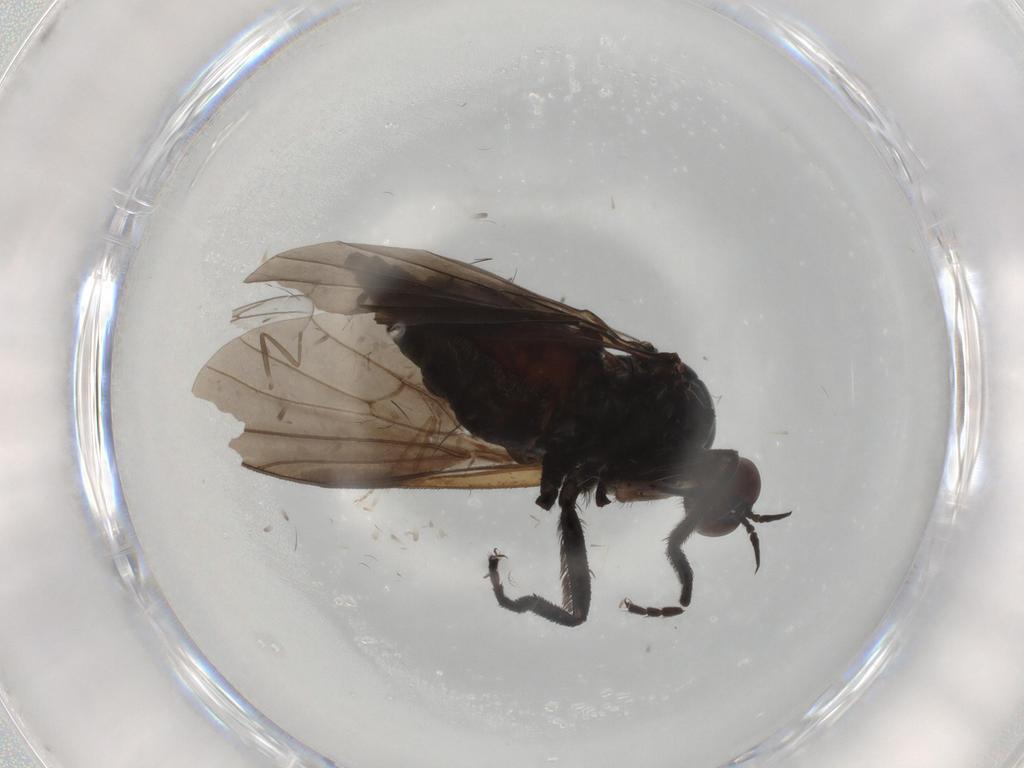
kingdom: Animalia
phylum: Arthropoda
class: Insecta
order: Diptera
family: Empididae
